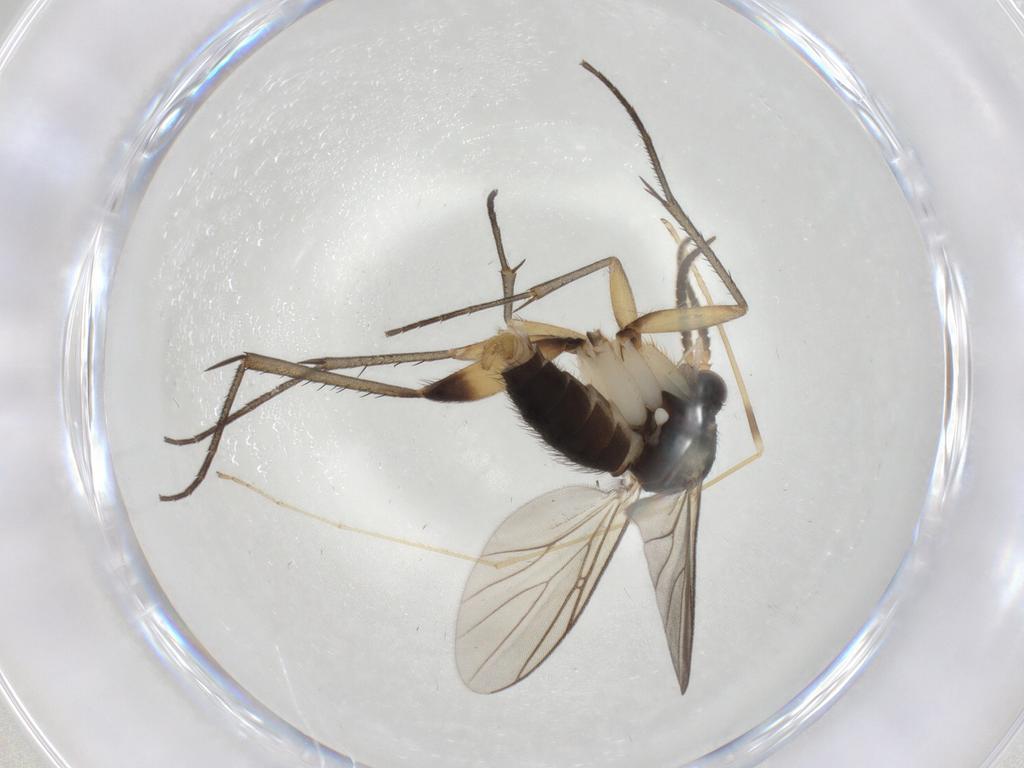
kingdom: Animalia
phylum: Arthropoda
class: Insecta
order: Diptera
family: Mycetophilidae
